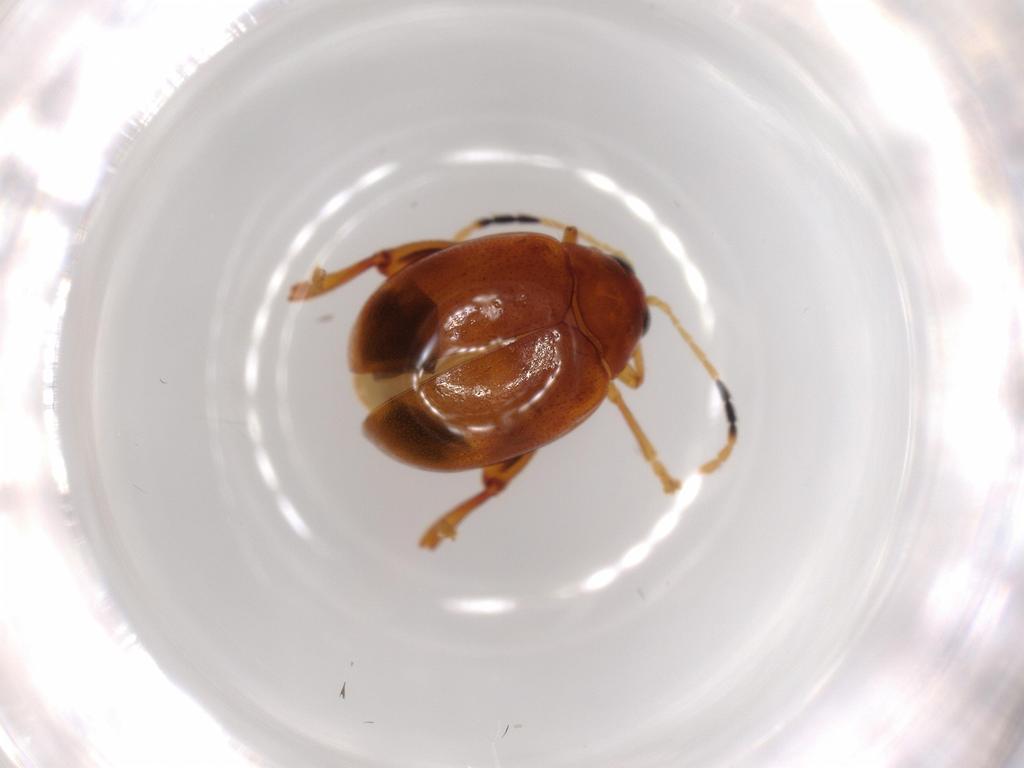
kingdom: Animalia
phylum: Arthropoda
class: Insecta
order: Coleoptera
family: Chrysomelidae
